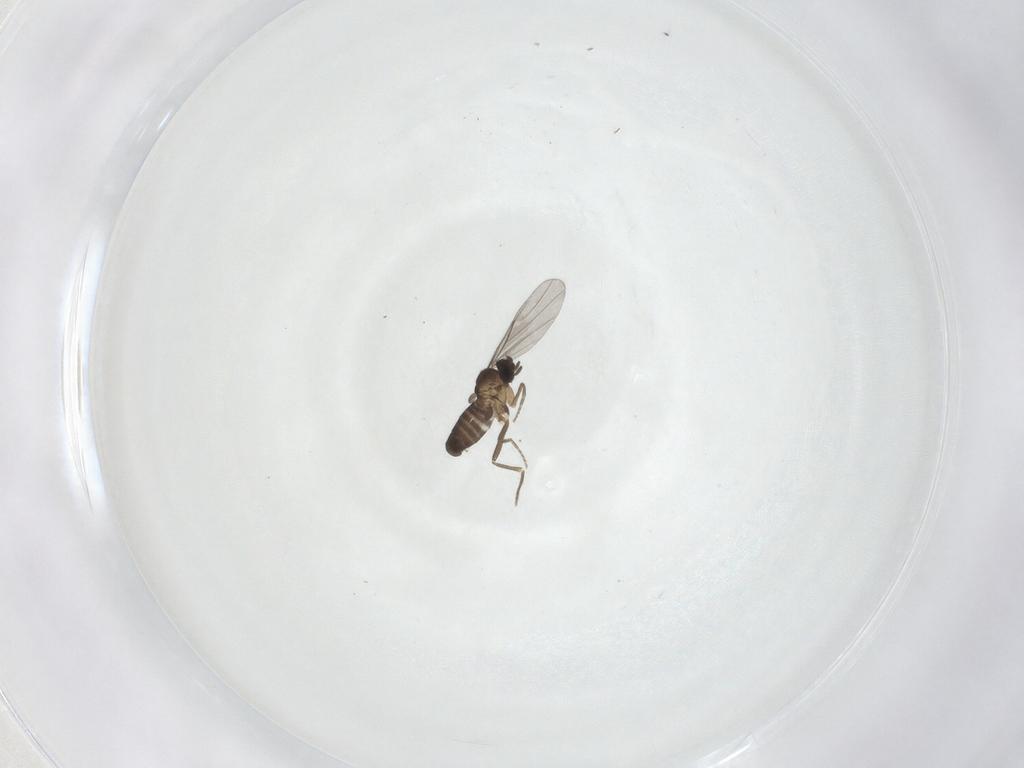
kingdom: Animalia
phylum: Arthropoda
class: Insecta
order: Diptera
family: Phoridae
